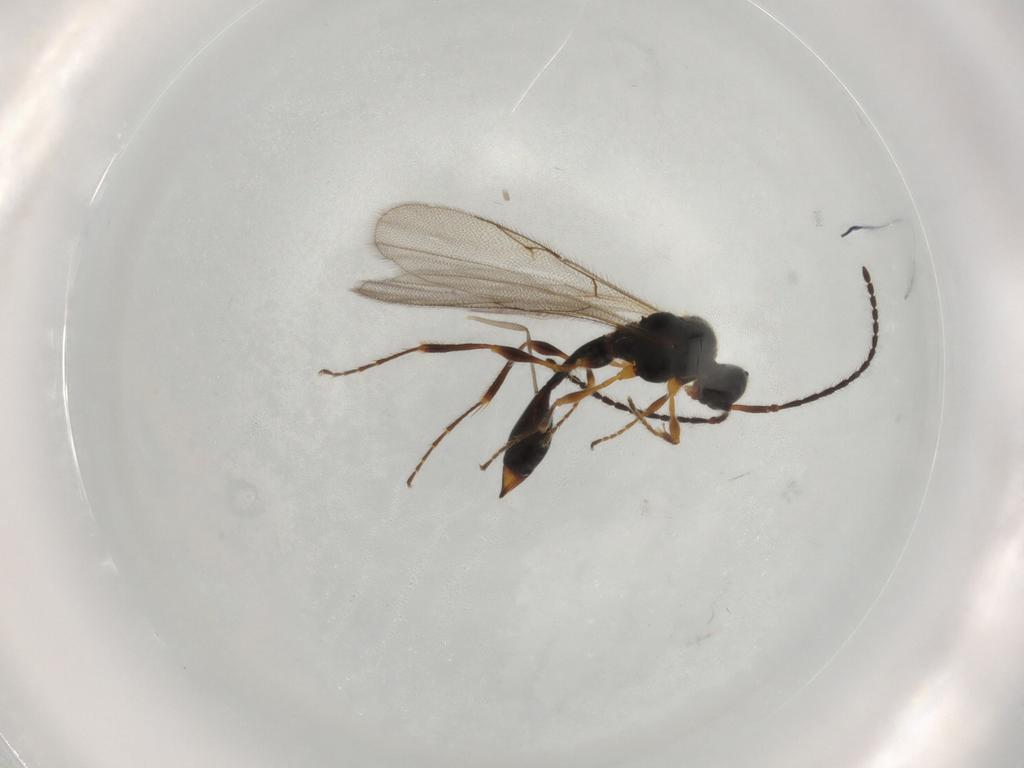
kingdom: Animalia
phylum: Arthropoda
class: Insecta
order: Hymenoptera
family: Diapriidae
